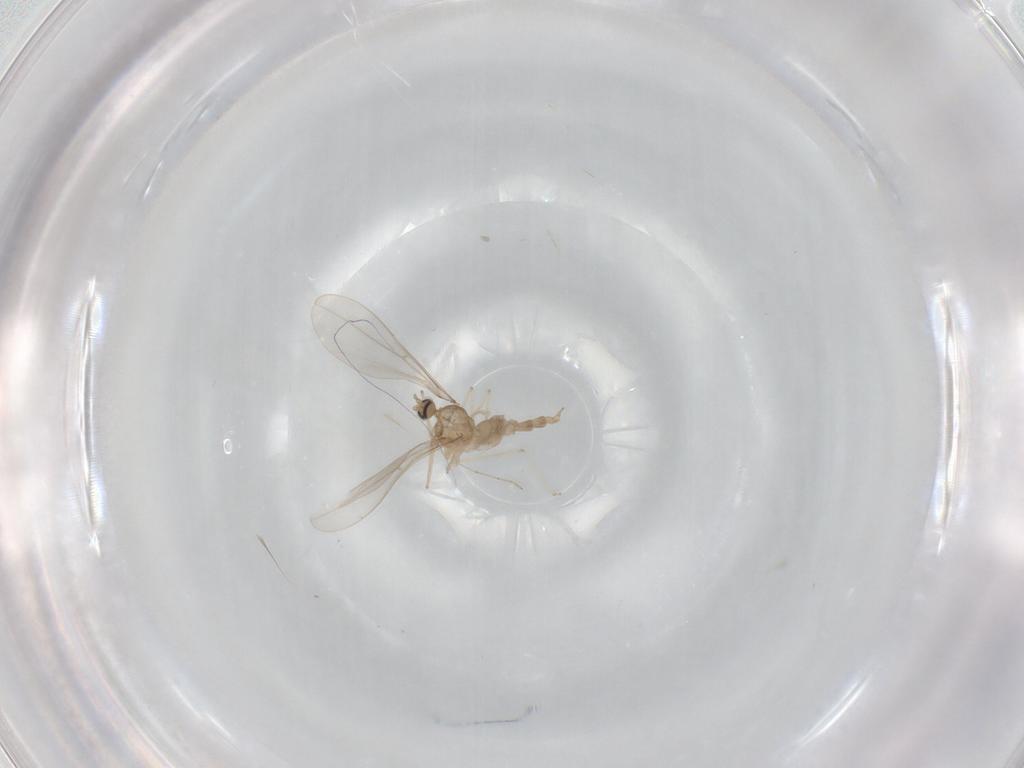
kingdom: Animalia
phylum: Arthropoda
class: Insecta
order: Diptera
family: Cecidomyiidae
